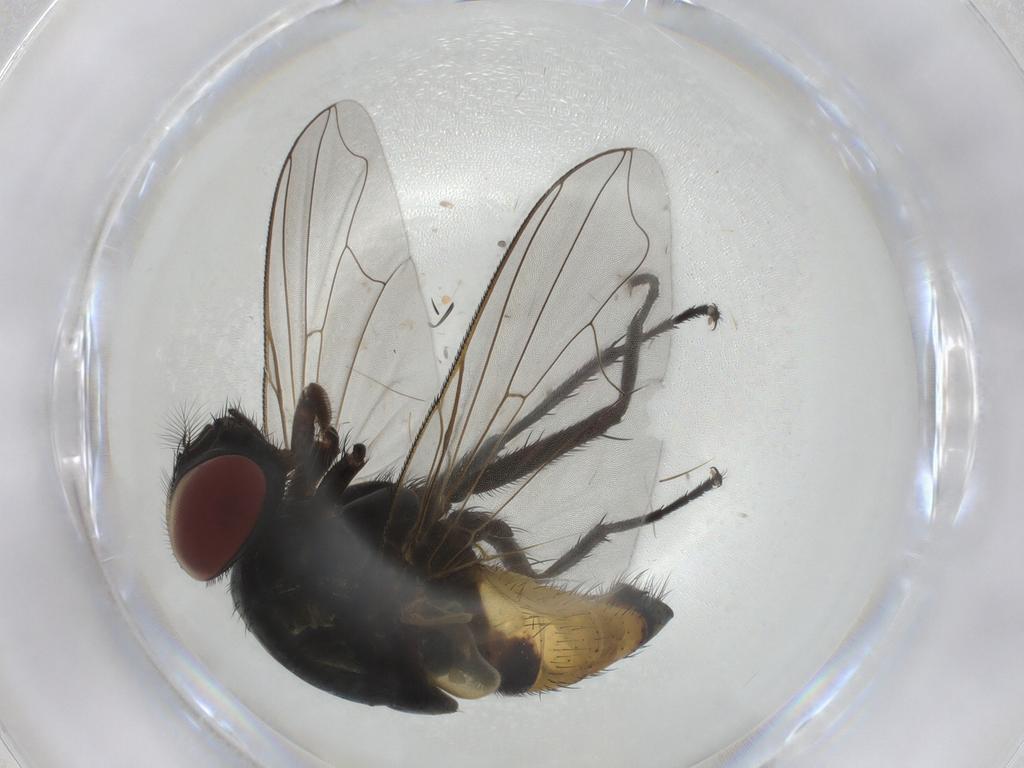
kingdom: Animalia
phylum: Arthropoda
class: Insecta
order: Diptera
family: Muscidae
